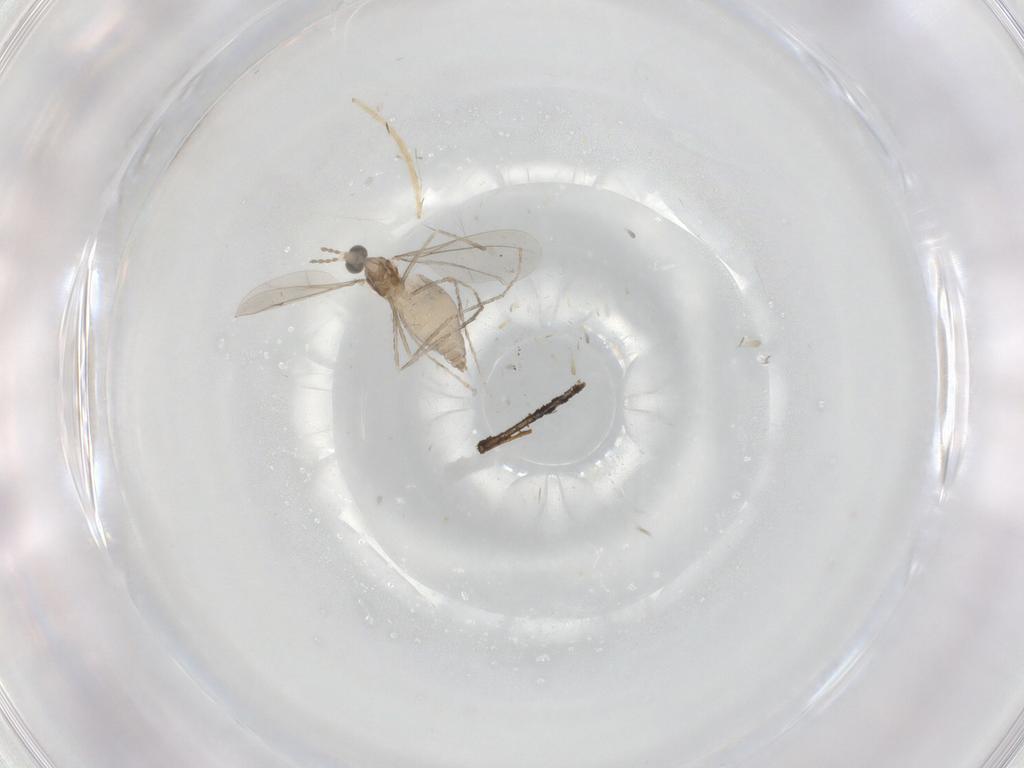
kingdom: Animalia
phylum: Arthropoda
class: Insecta
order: Diptera
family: Cecidomyiidae
